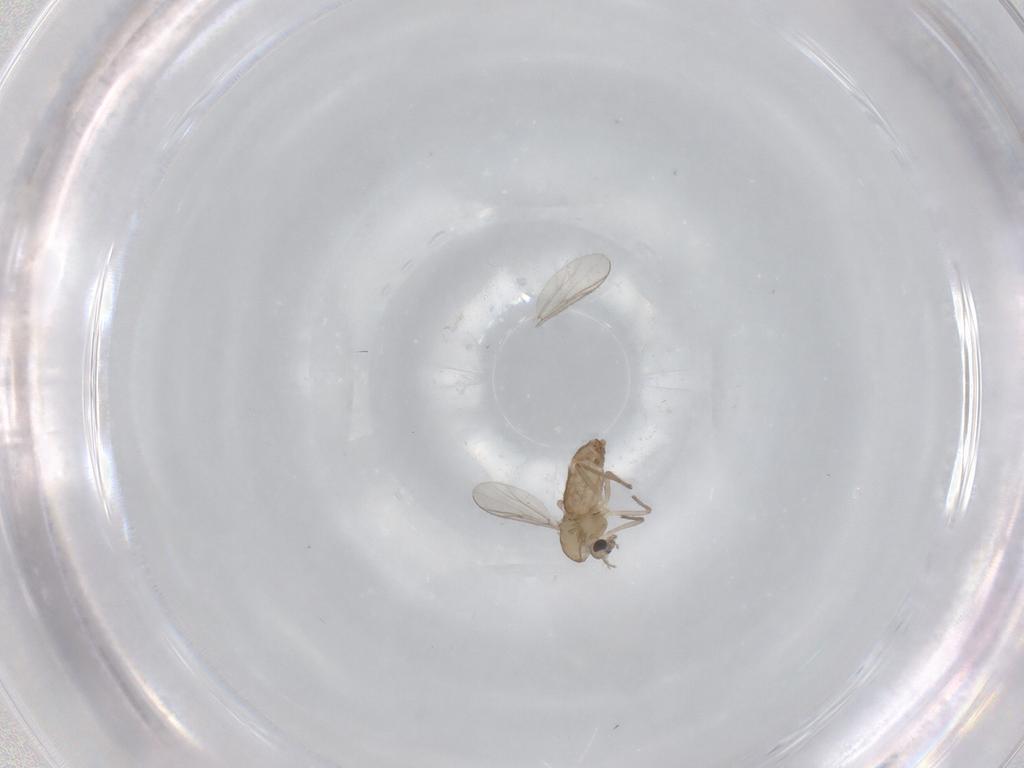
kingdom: Animalia
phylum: Arthropoda
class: Insecta
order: Diptera
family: Chironomidae
